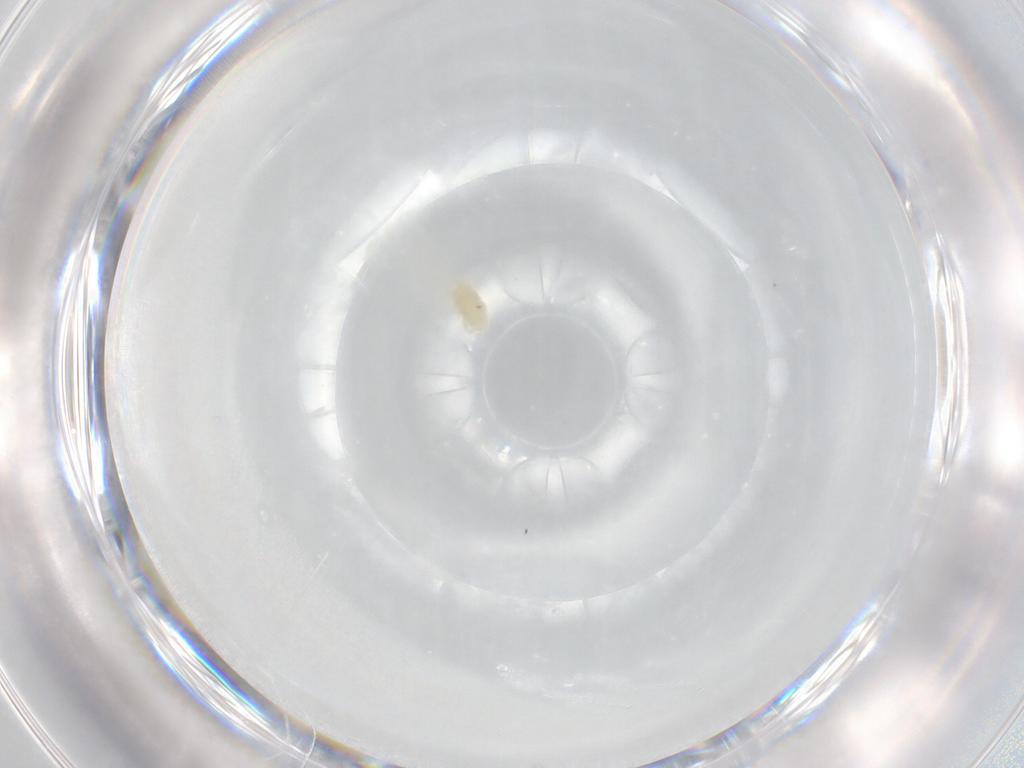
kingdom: Animalia
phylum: Arthropoda
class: Arachnida
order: Trombidiformes
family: Eupodidae
